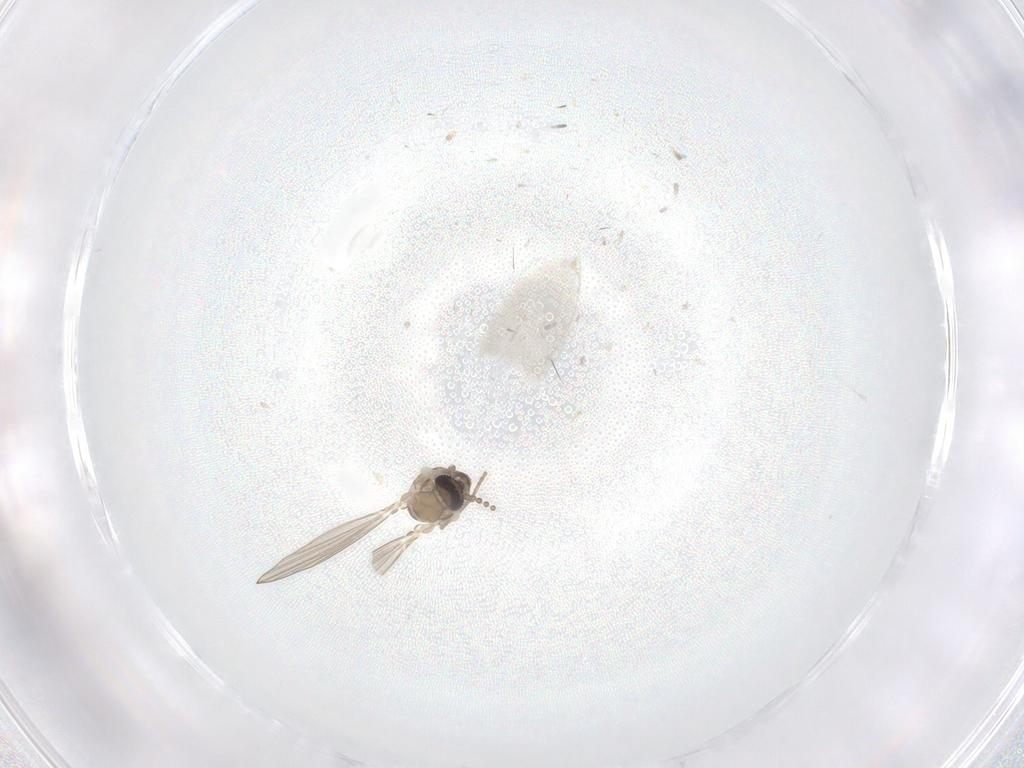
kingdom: Animalia
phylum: Arthropoda
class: Insecta
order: Diptera
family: Psychodidae
